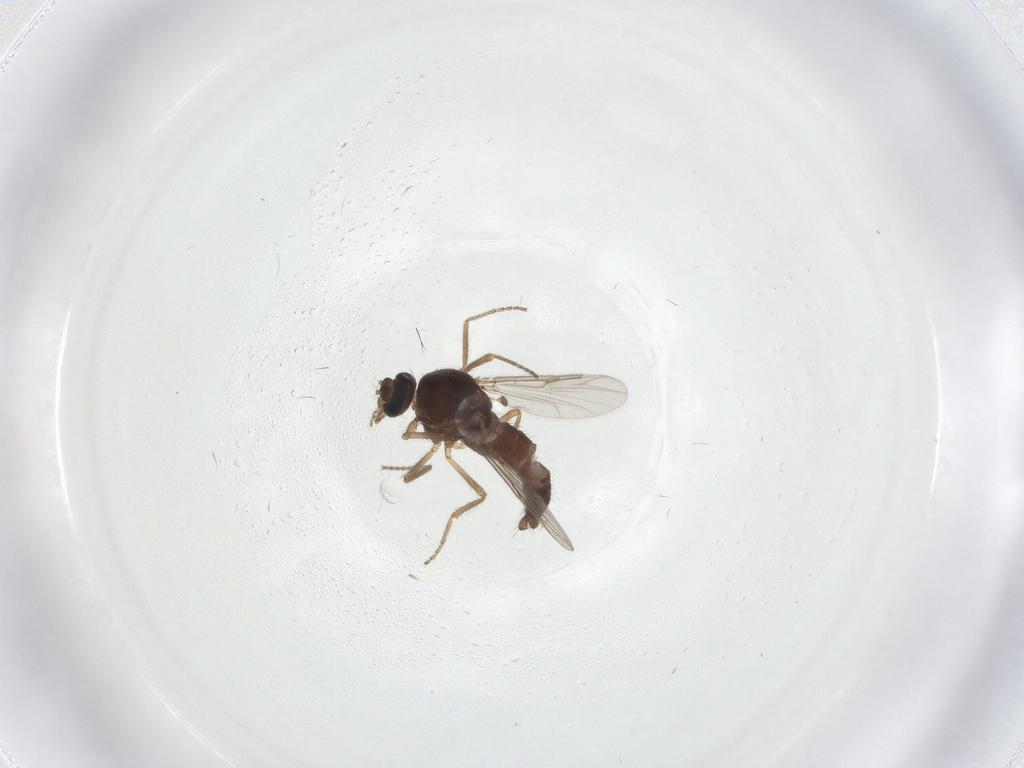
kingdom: Animalia
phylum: Arthropoda
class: Insecta
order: Diptera
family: Ceratopogonidae
